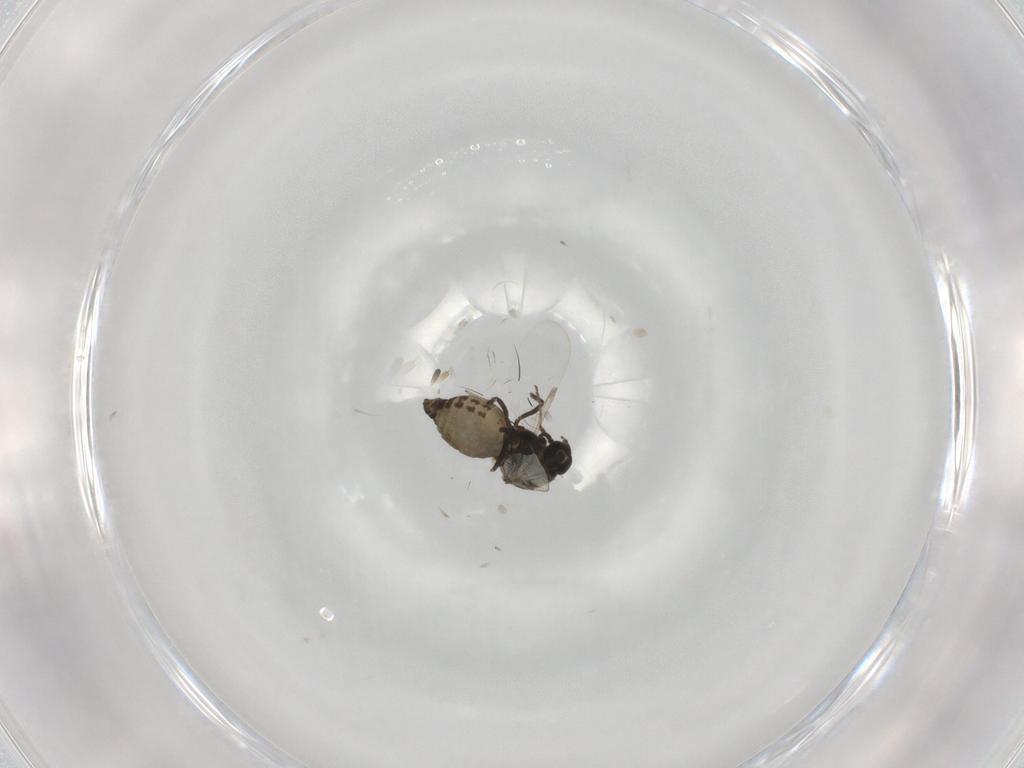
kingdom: Animalia
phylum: Arthropoda
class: Insecta
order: Diptera
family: Ceratopogonidae
